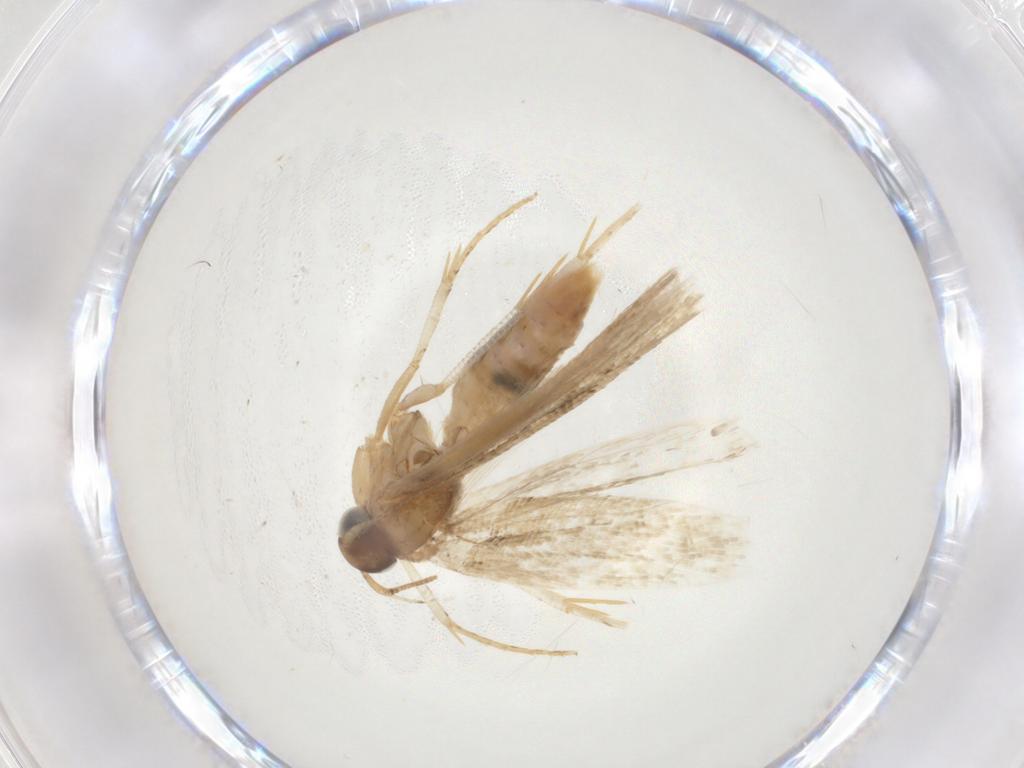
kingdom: Animalia
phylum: Arthropoda
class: Insecta
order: Lepidoptera
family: Gelechiidae
